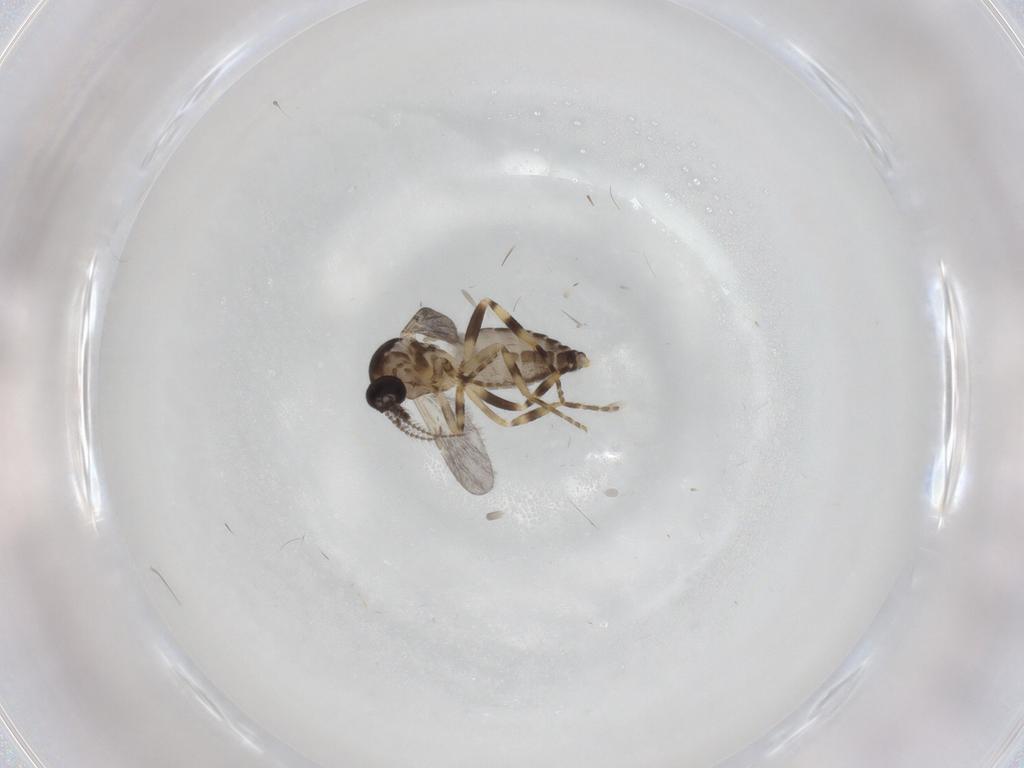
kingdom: Animalia
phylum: Arthropoda
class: Insecta
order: Diptera
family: Ceratopogonidae
